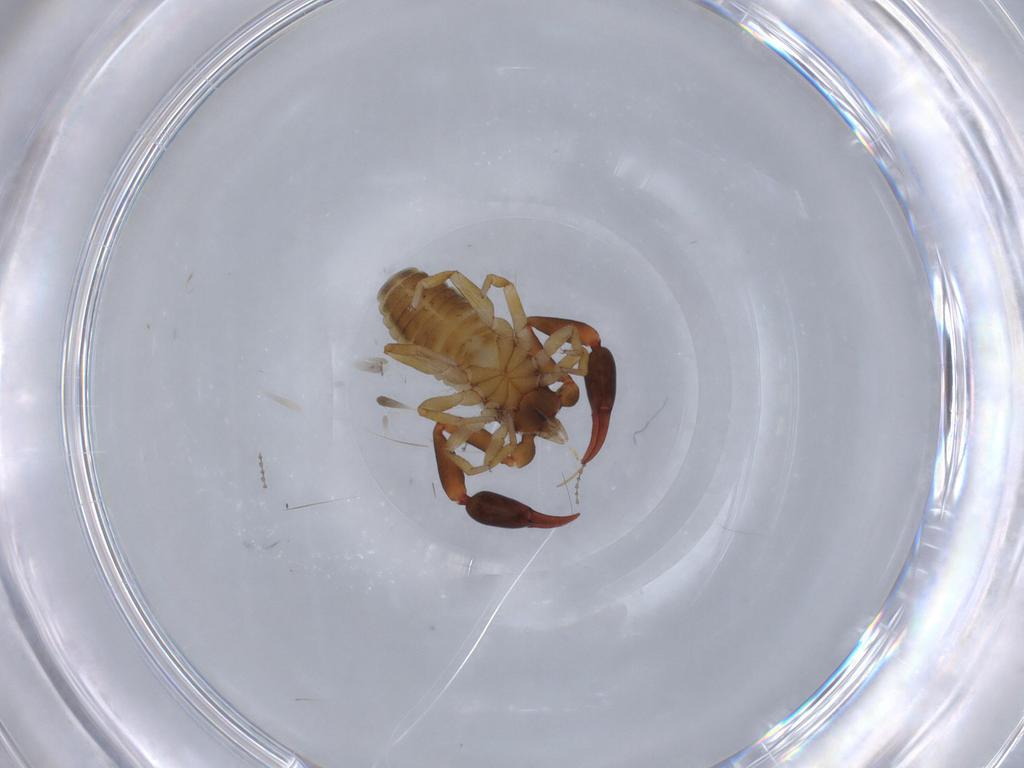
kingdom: Animalia
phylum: Arthropoda
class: Arachnida
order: Pseudoscorpiones
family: Withiidae
